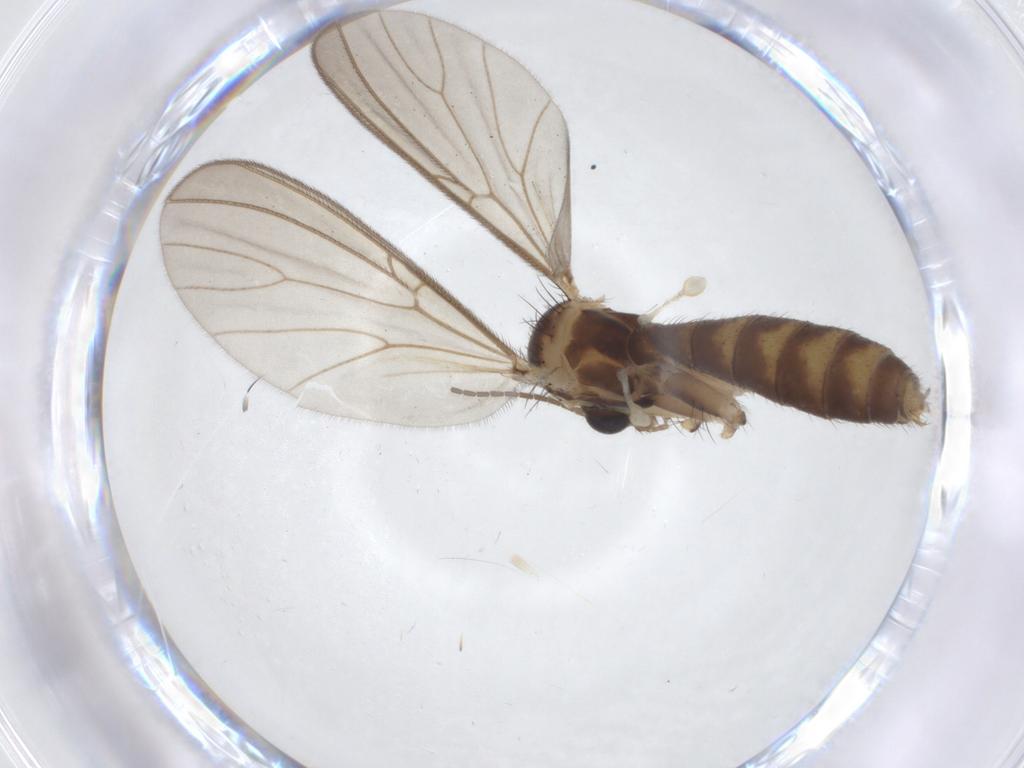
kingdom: Animalia
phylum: Arthropoda
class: Insecta
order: Diptera
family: Mycetophilidae
